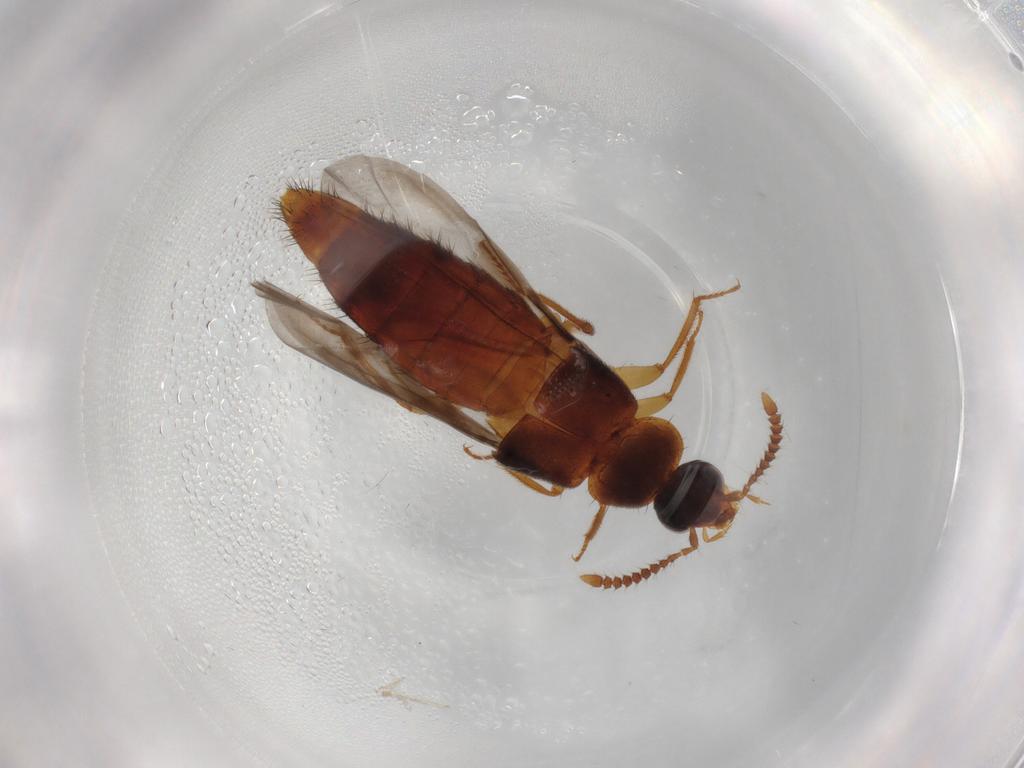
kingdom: Animalia
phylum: Arthropoda
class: Insecta
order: Coleoptera
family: Staphylinidae
